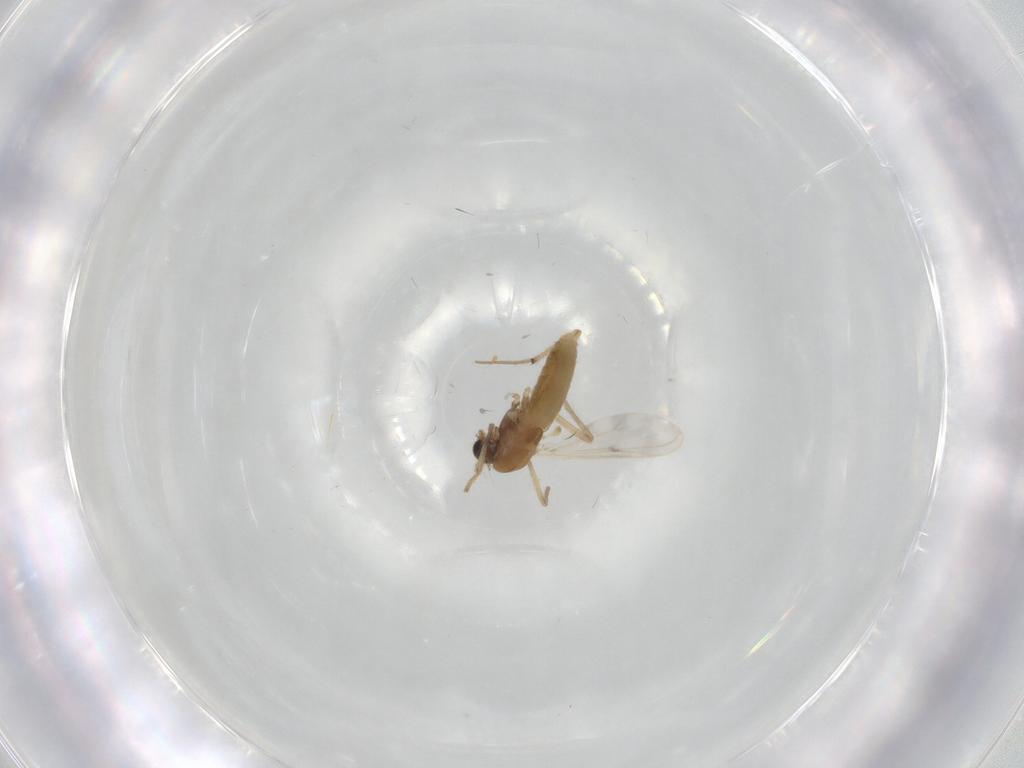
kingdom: Animalia
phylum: Arthropoda
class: Insecta
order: Diptera
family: Cecidomyiidae
